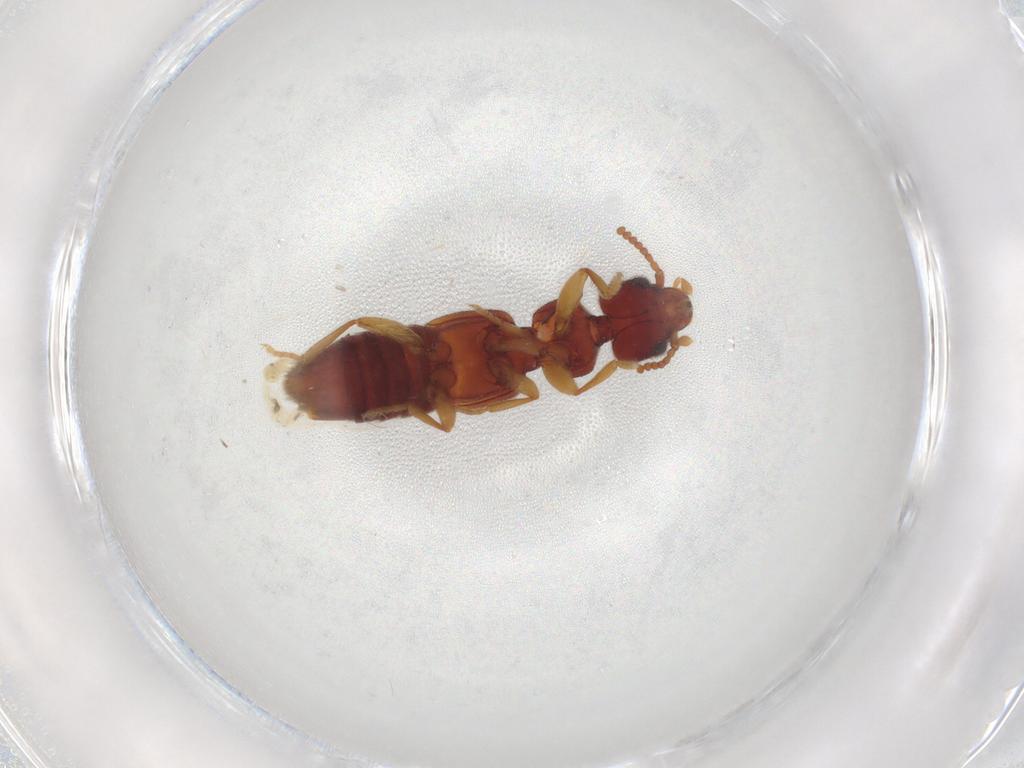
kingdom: Animalia
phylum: Arthropoda
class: Insecta
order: Coleoptera
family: Staphylinidae
